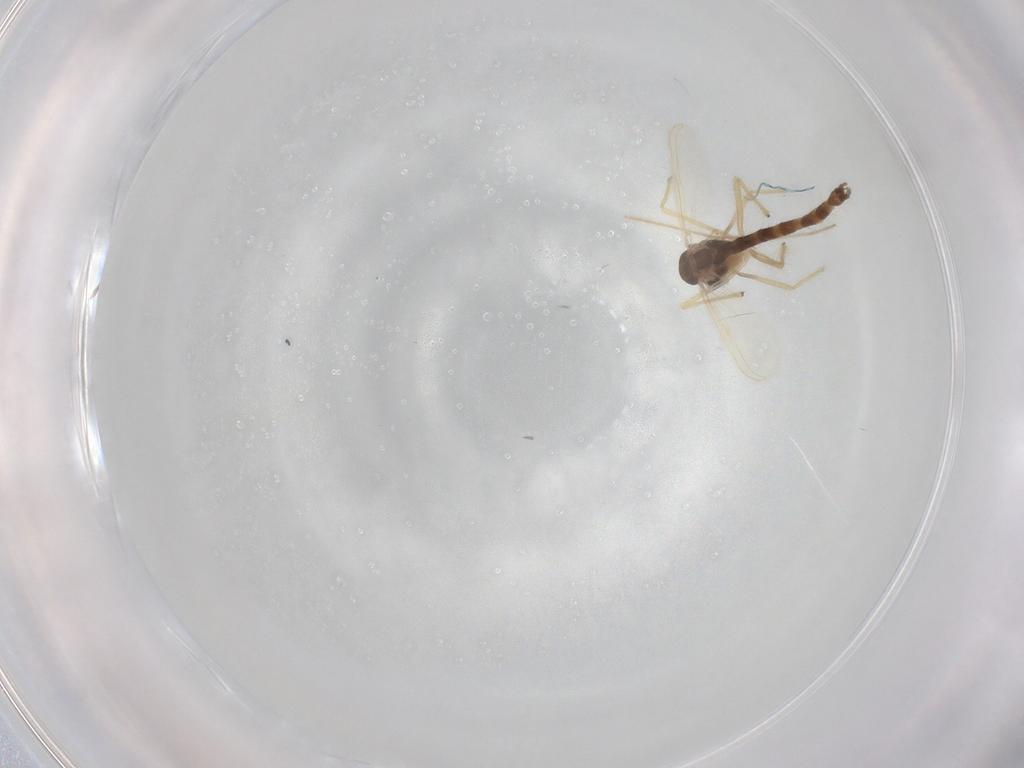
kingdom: Animalia
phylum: Arthropoda
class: Insecta
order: Diptera
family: Chironomidae
